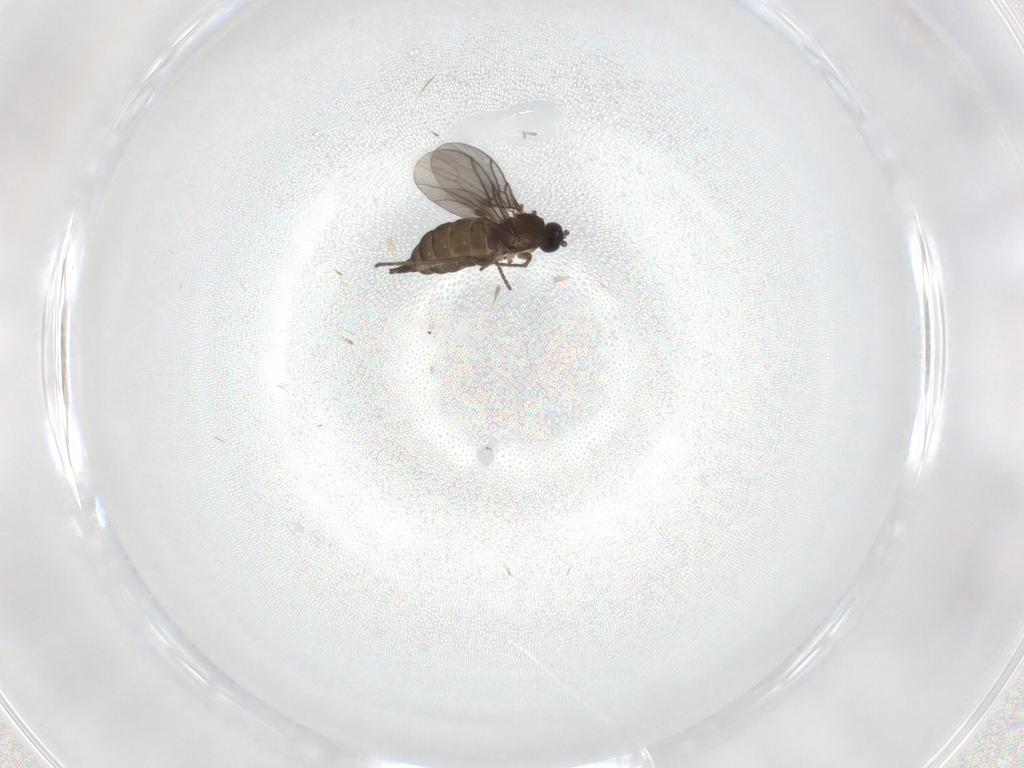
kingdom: Animalia
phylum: Arthropoda
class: Insecta
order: Diptera
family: Sciaridae
